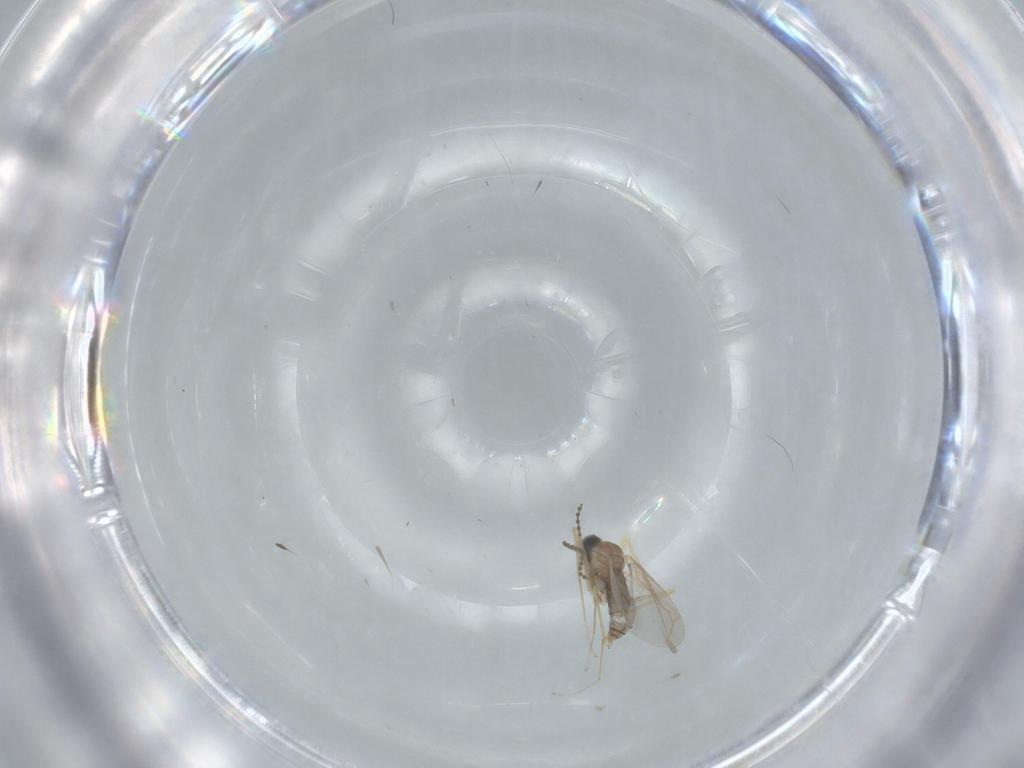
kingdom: Animalia
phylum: Arthropoda
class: Insecta
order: Diptera
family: Cecidomyiidae
